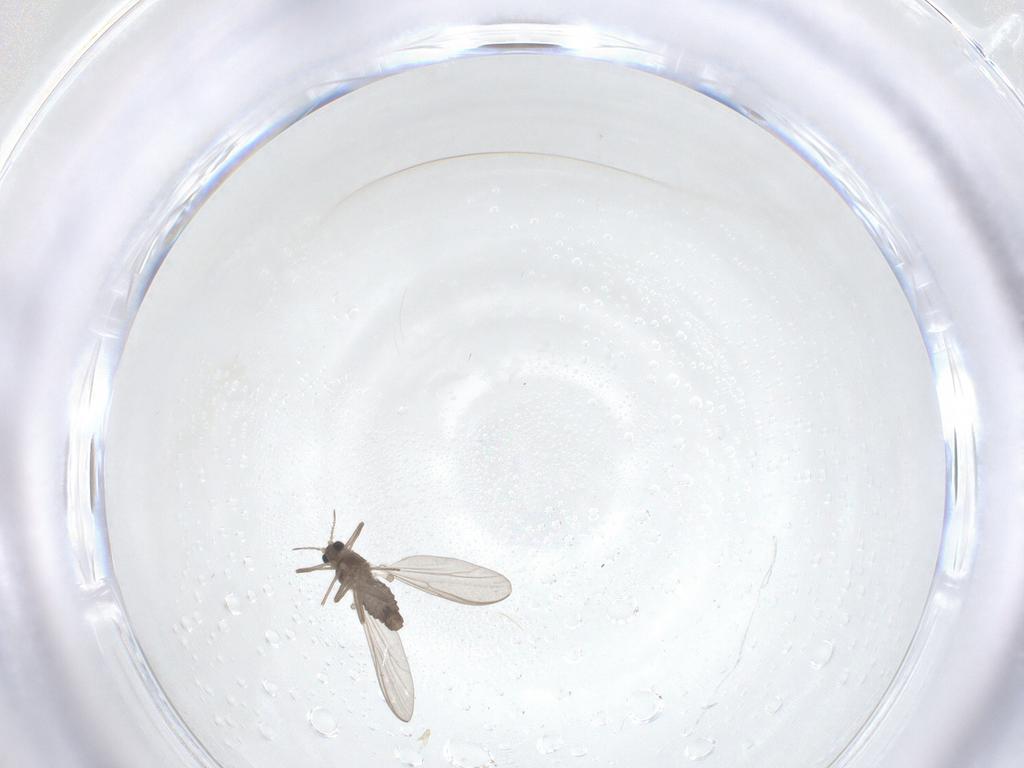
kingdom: Animalia
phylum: Arthropoda
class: Insecta
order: Diptera
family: Chironomidae
